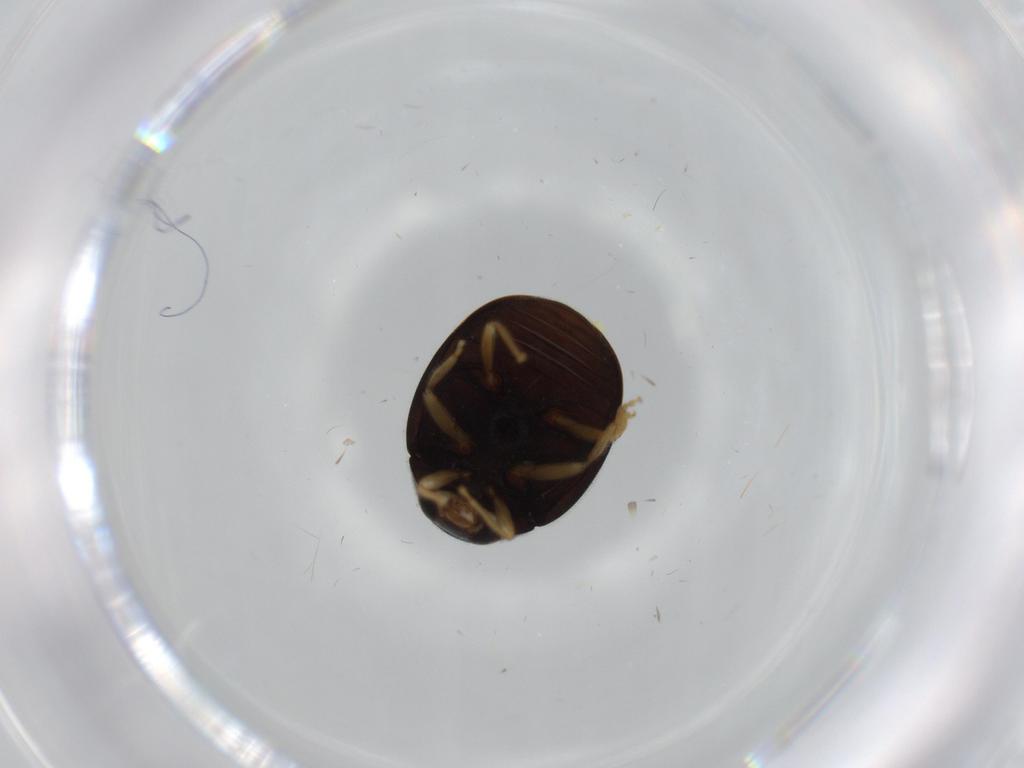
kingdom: Animalia
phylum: Arthropoda
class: Insecta
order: Coleoptera
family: Coccinellidae
